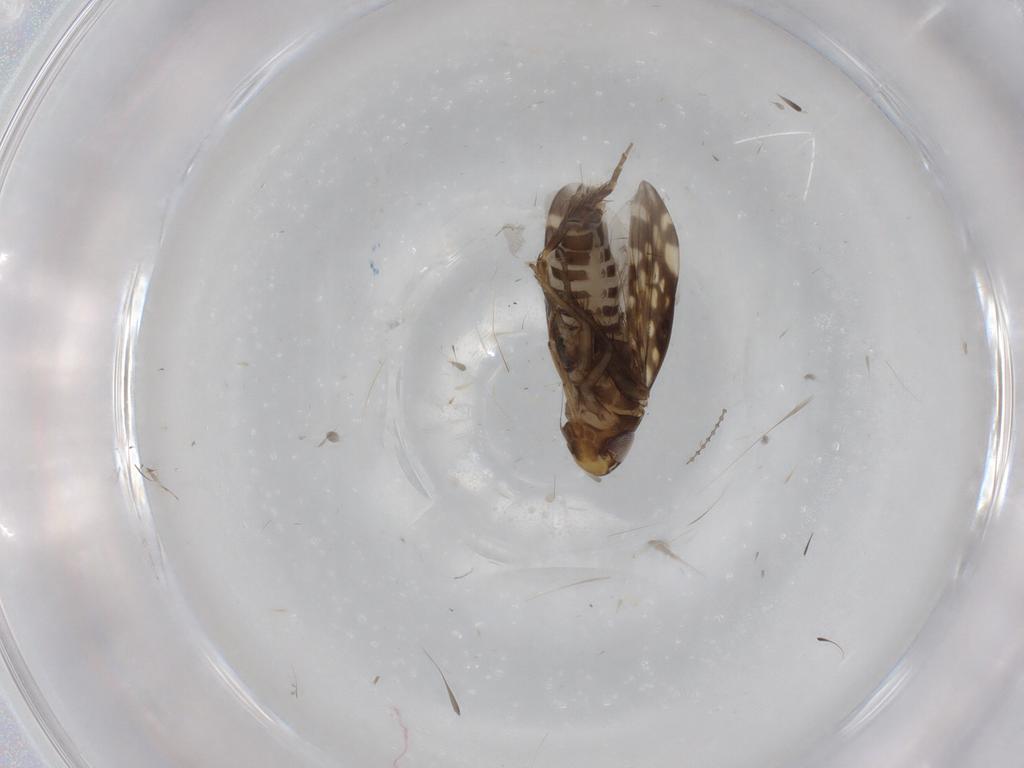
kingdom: Animalia
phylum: Arthropoda
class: Insecta
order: Hemiptera
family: Cicadellidae
